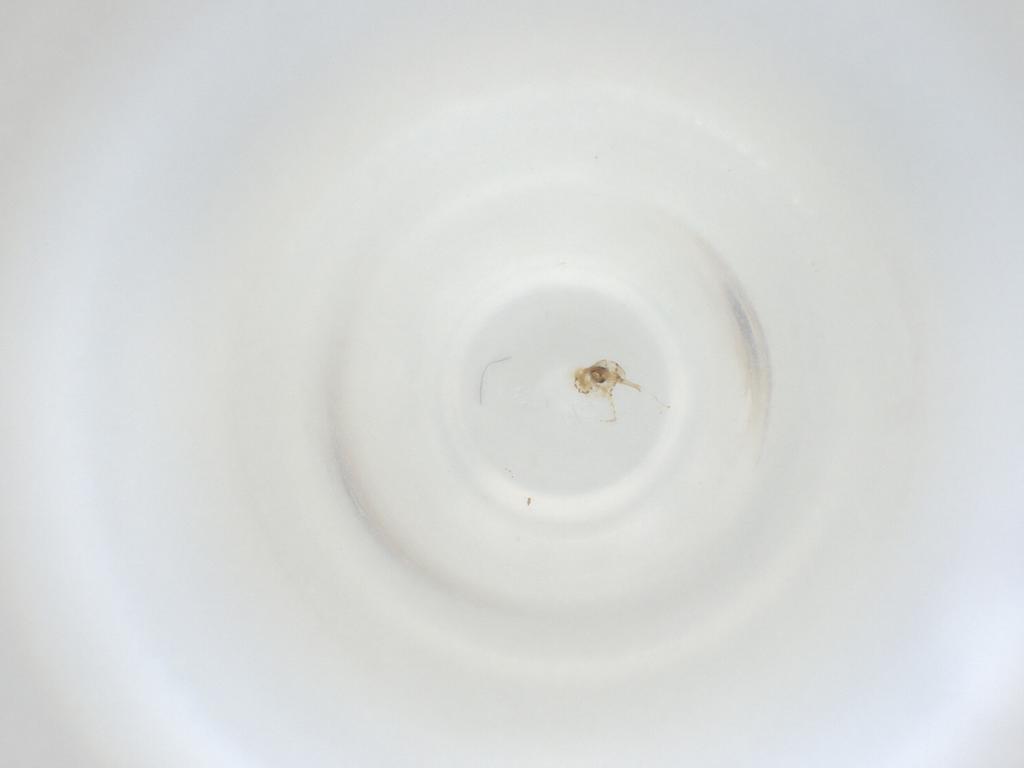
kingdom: Animalia
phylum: Arthropoda
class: Insecta
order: Diptera
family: Cecidomyiidae
